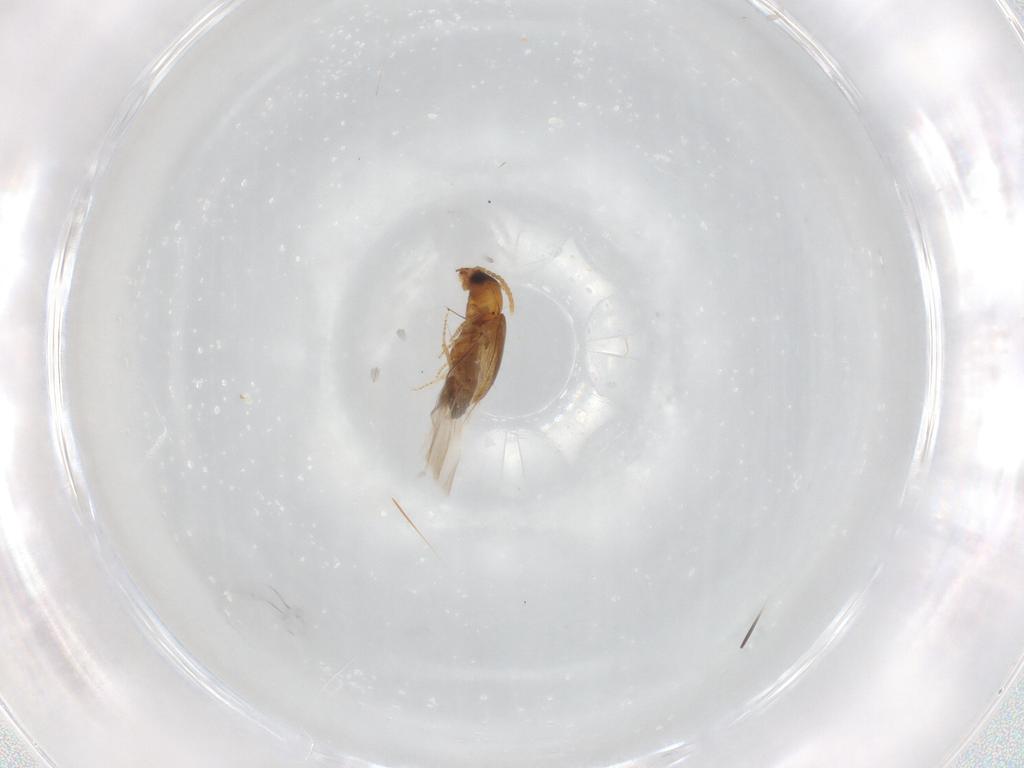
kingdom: Animalia
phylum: Arthropoda
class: Insecta
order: Coleoptera
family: Carabidae
